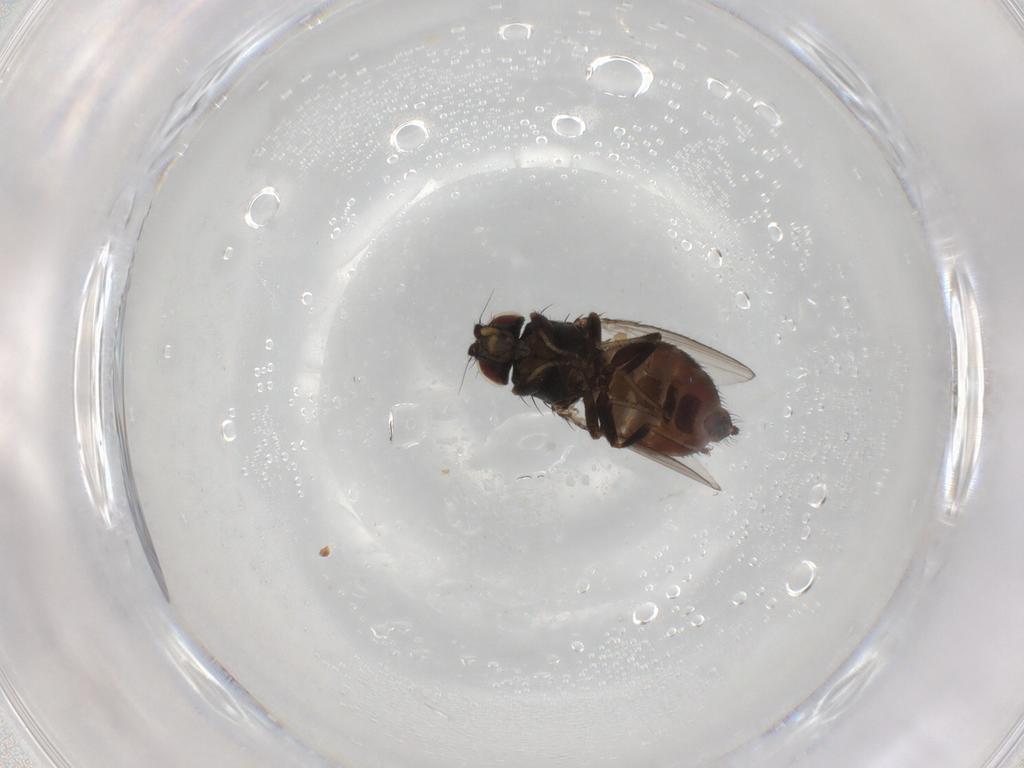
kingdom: Animalia
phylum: Arthropoda
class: Insecta
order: Diptera
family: Milichiidae
